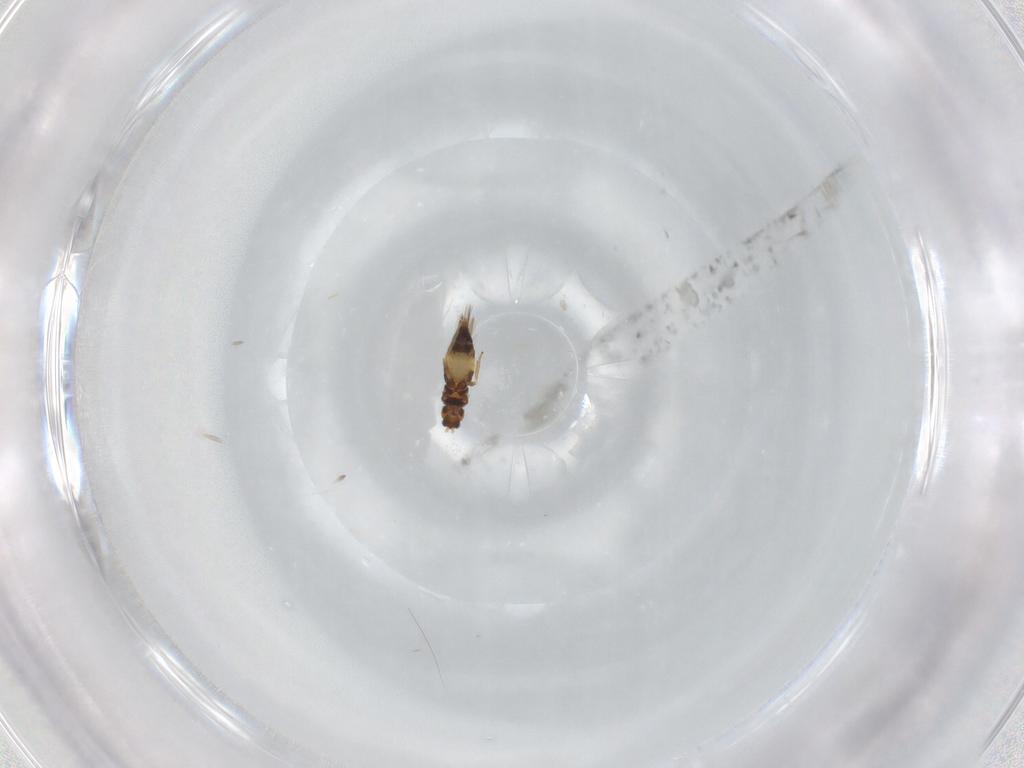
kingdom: Animalia
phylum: Arthropoda
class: Insecta
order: Thysanoptera
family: Thripidae
